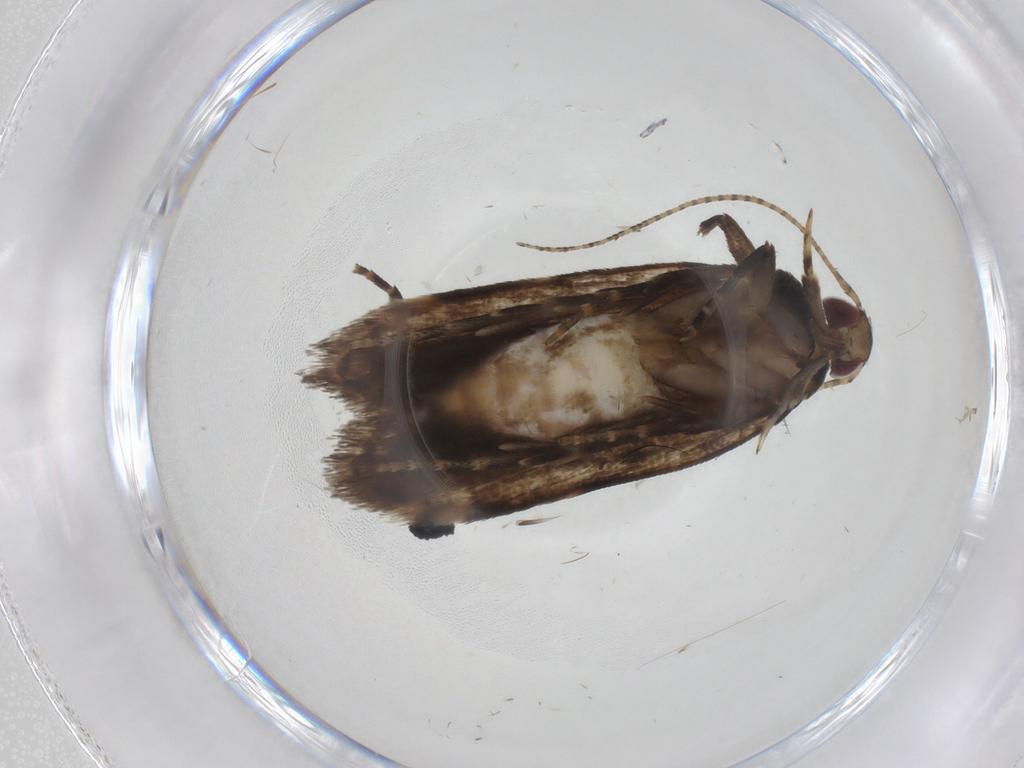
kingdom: Animalia
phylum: Arthropoda
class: Insecta
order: Lepidoptera
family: Gelechiidae
